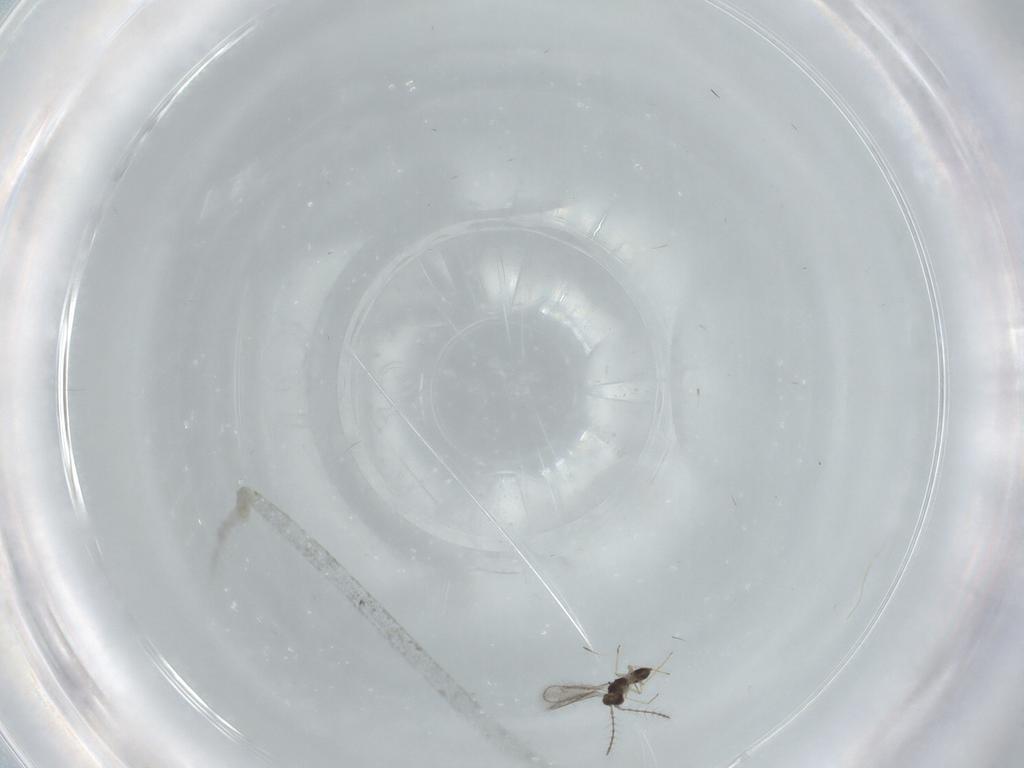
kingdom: Animalia
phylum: Arthropoda
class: Insecta
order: Hymenoptera
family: Pteromalidae
